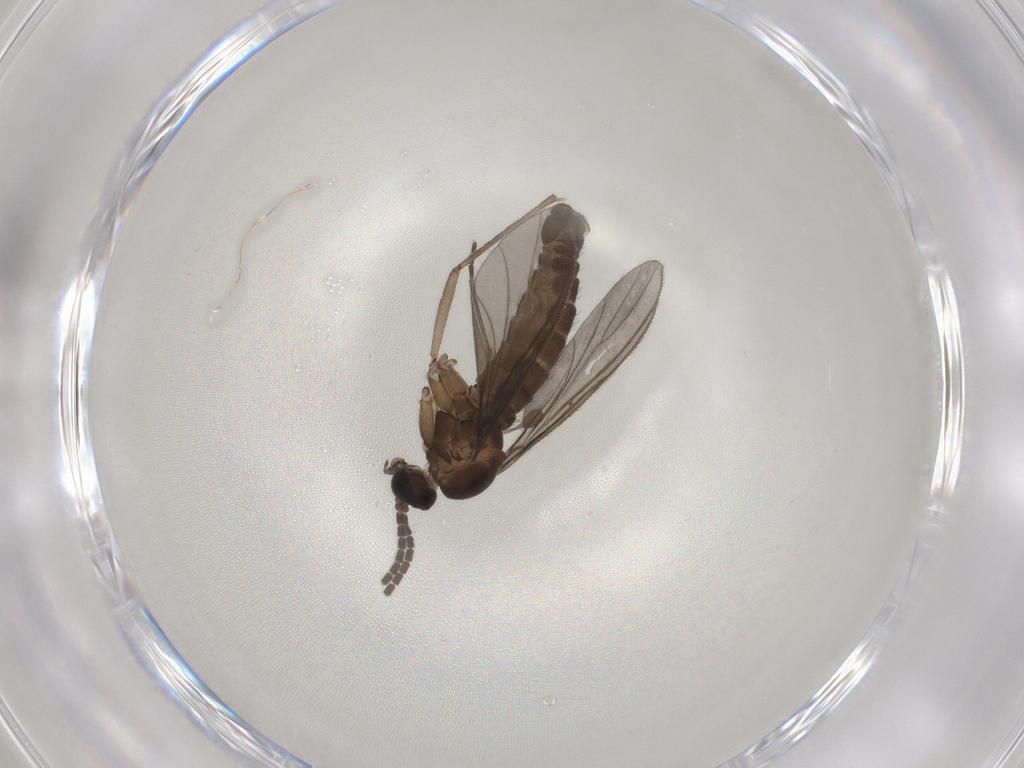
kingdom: Animalia
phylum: Arthropoda
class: Insecta
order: Diptera
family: Sciaridae
